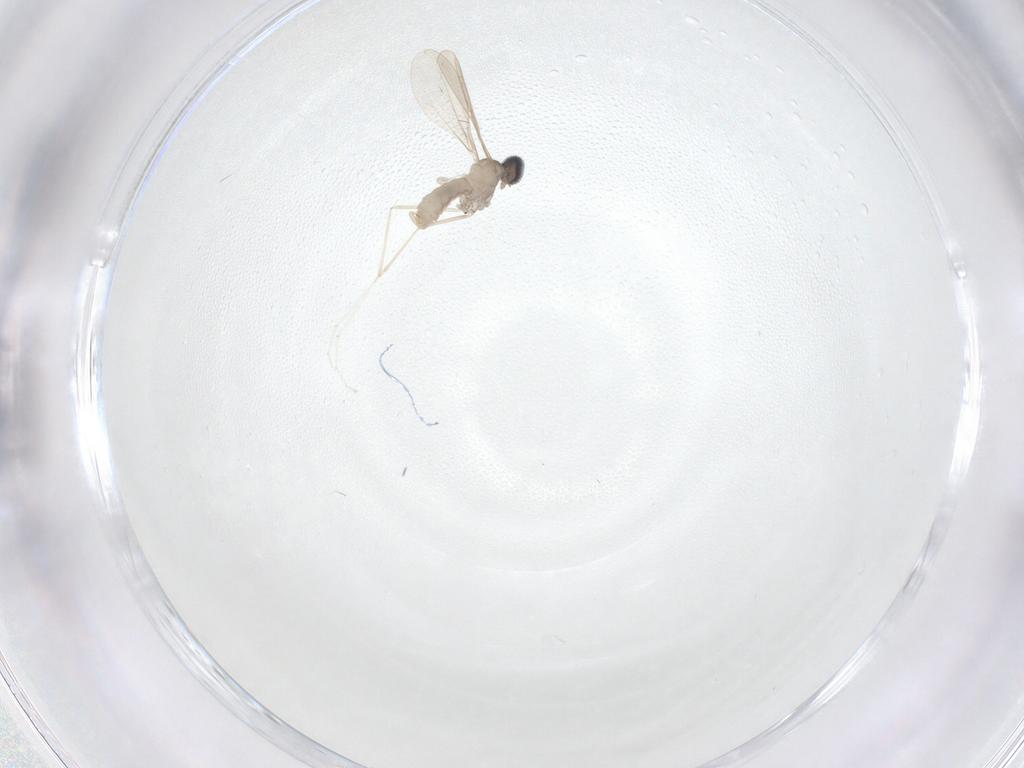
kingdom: Animalia
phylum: Arthropoda
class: Insecta
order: Diptera
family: Cecidomyiidae
